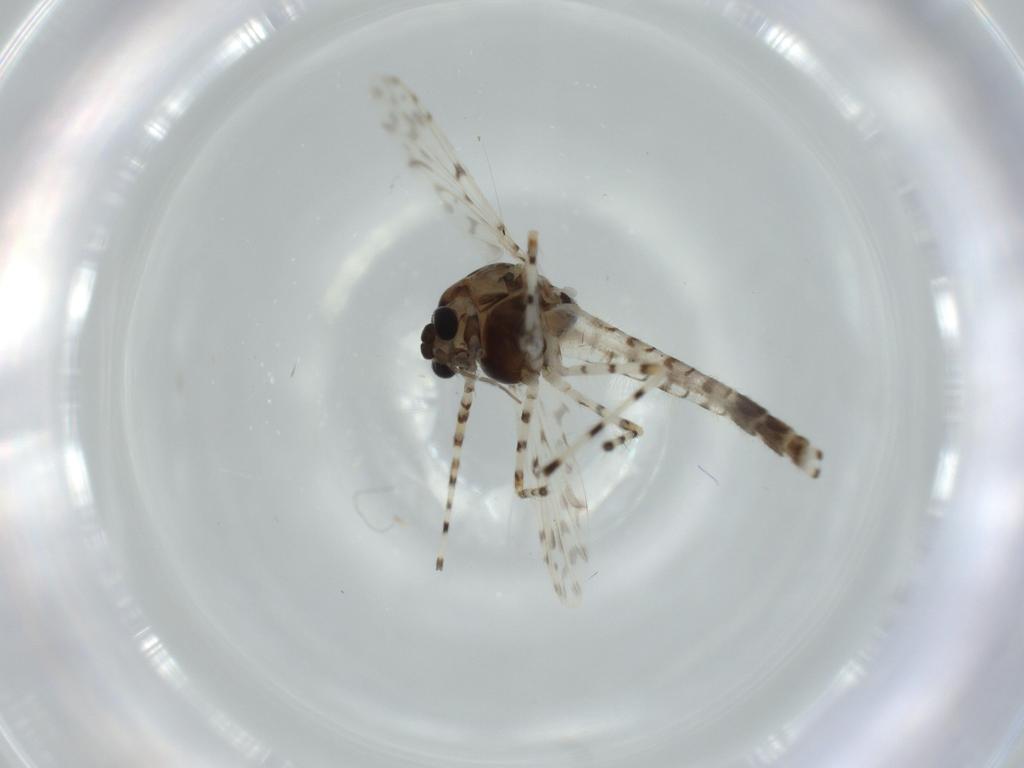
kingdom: Animalia
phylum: Arthropoda
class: Insecta
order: Diptera
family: Chironomidae
